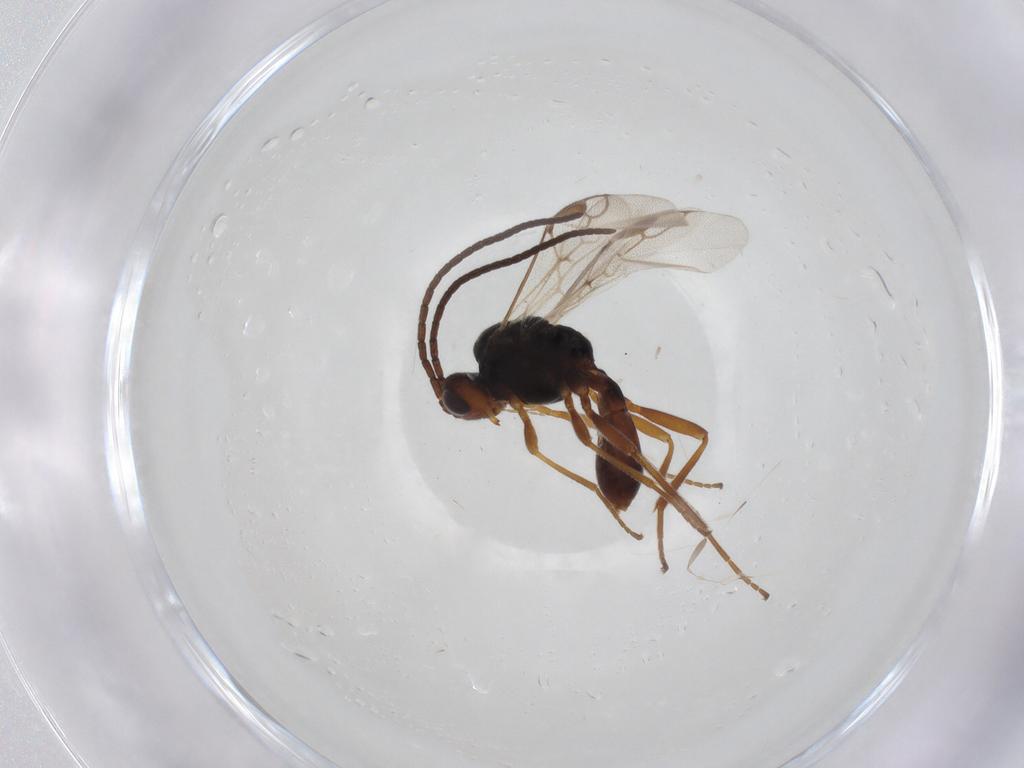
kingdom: Animalia
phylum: Arthropoda
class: Insecta
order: Hymenoptera
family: Braconidae
